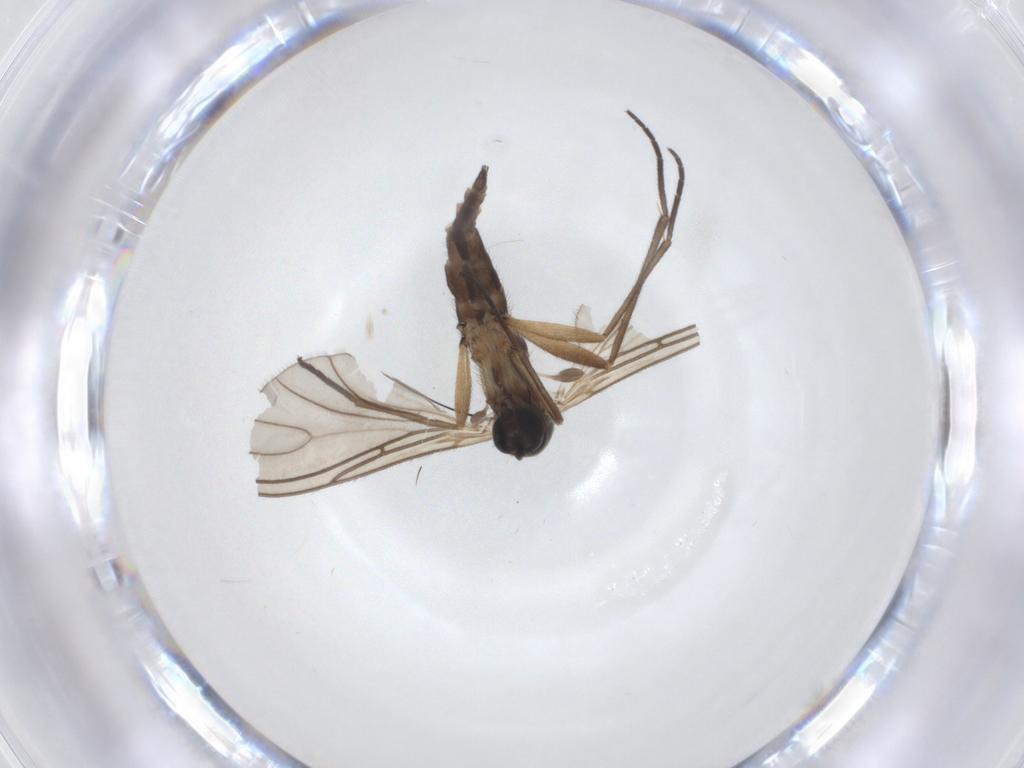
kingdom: Animalia
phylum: Arthropoda
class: Insecta
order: Diptera
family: Sciaridae
